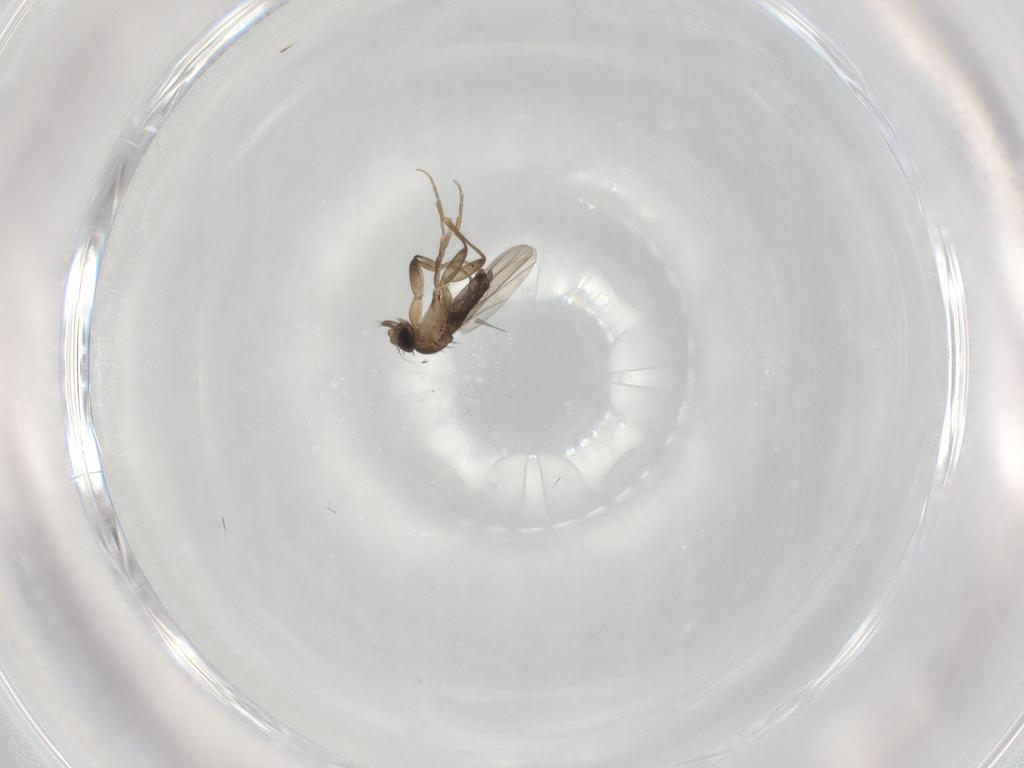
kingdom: Animalia
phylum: Arthropoda
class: Insecta
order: Diptera
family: Phoridae
